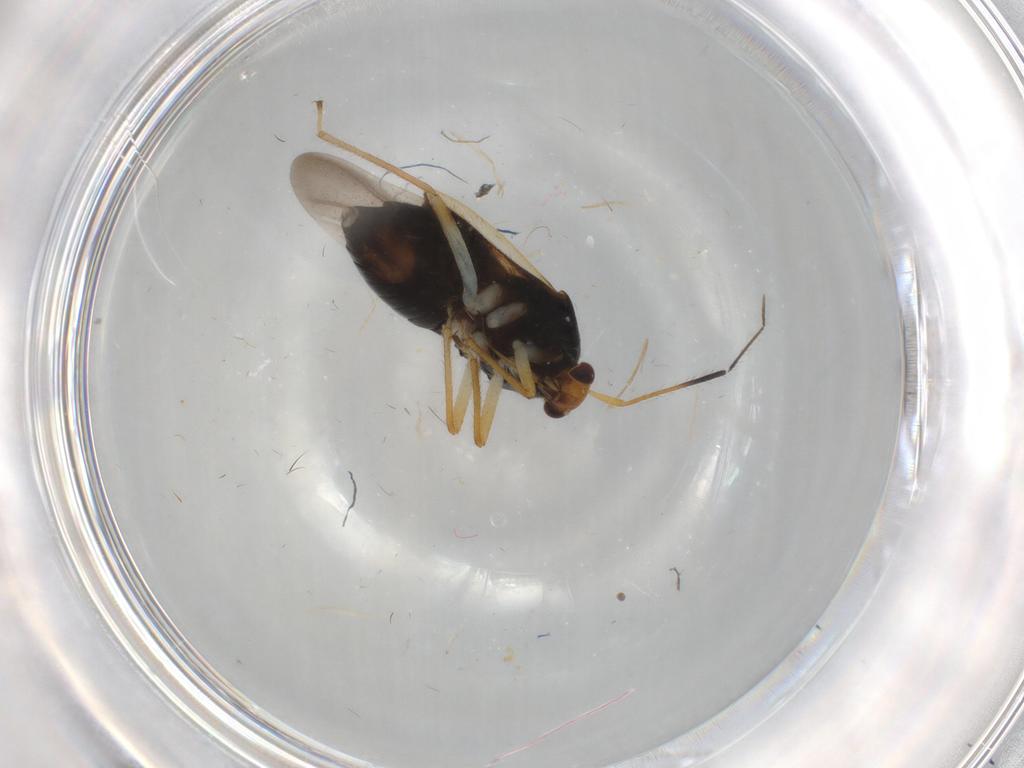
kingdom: Animalia
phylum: Arthropoda
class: Insecta
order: Hemiptera
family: Miridae
